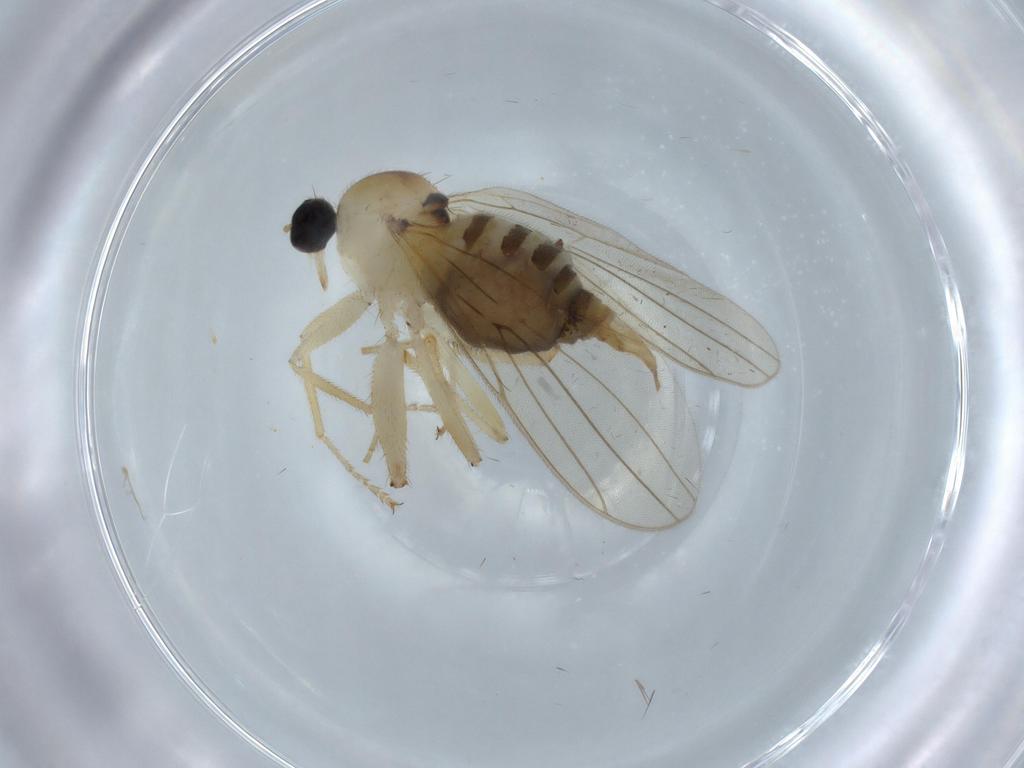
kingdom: Animalia
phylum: Arthropoda
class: Insecta
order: Diptera
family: Hybotidae
